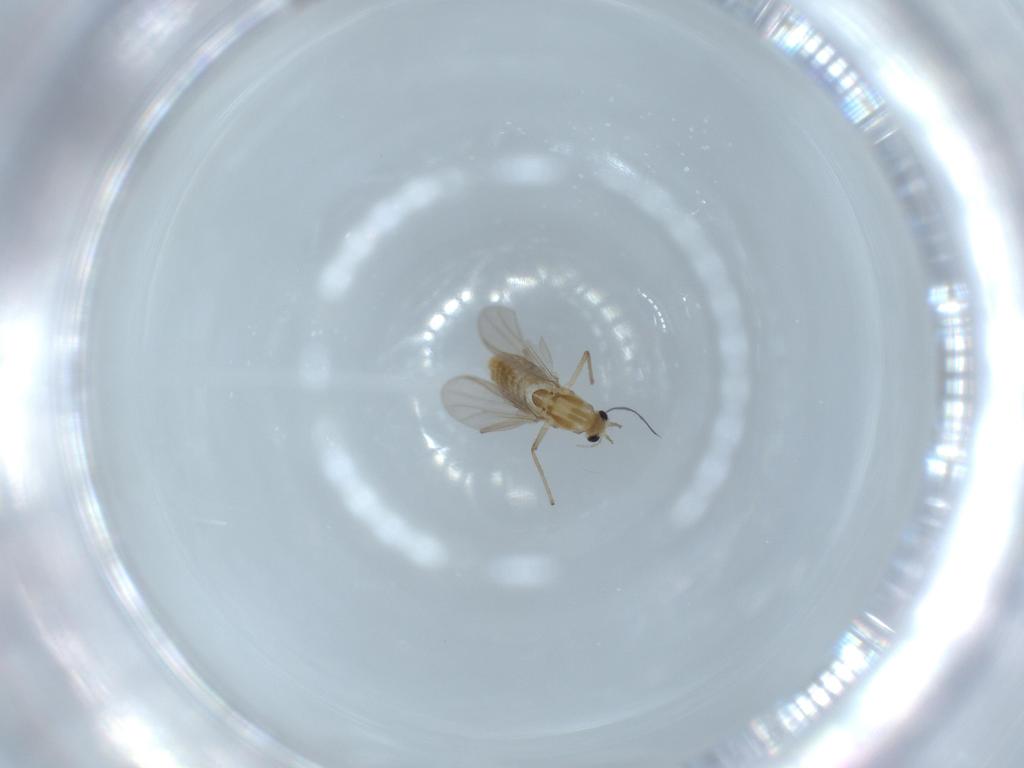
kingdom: Animalia
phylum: Arthropoda
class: Insecta
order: Diptera
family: Chironomidae
